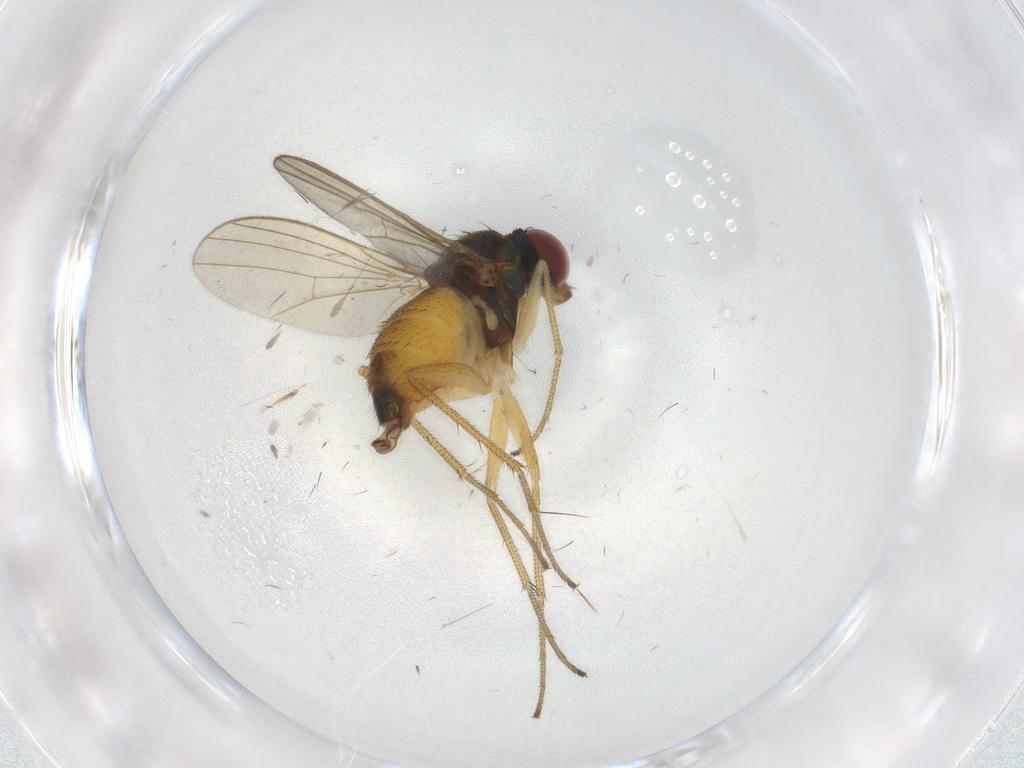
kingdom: Animalia
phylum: Arthropoda
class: Insecta
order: Diptera
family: Dolichopodidae
